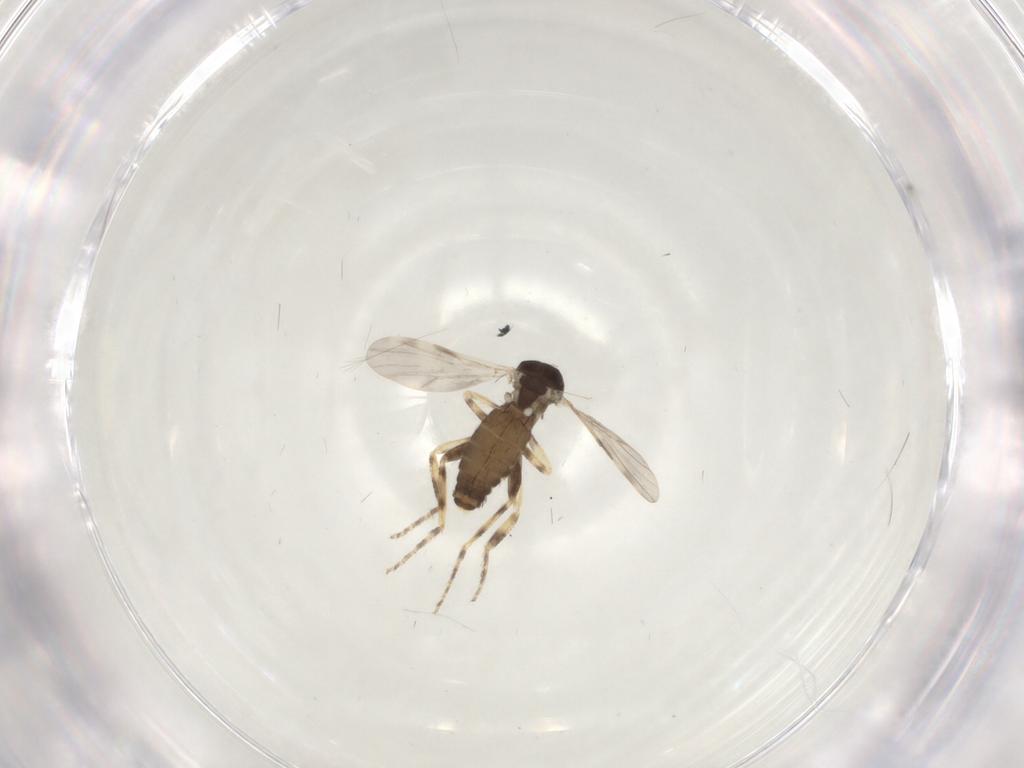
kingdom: Animalia
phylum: Arthropoda
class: Insecta
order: Diptera
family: Ceratopogonidae
